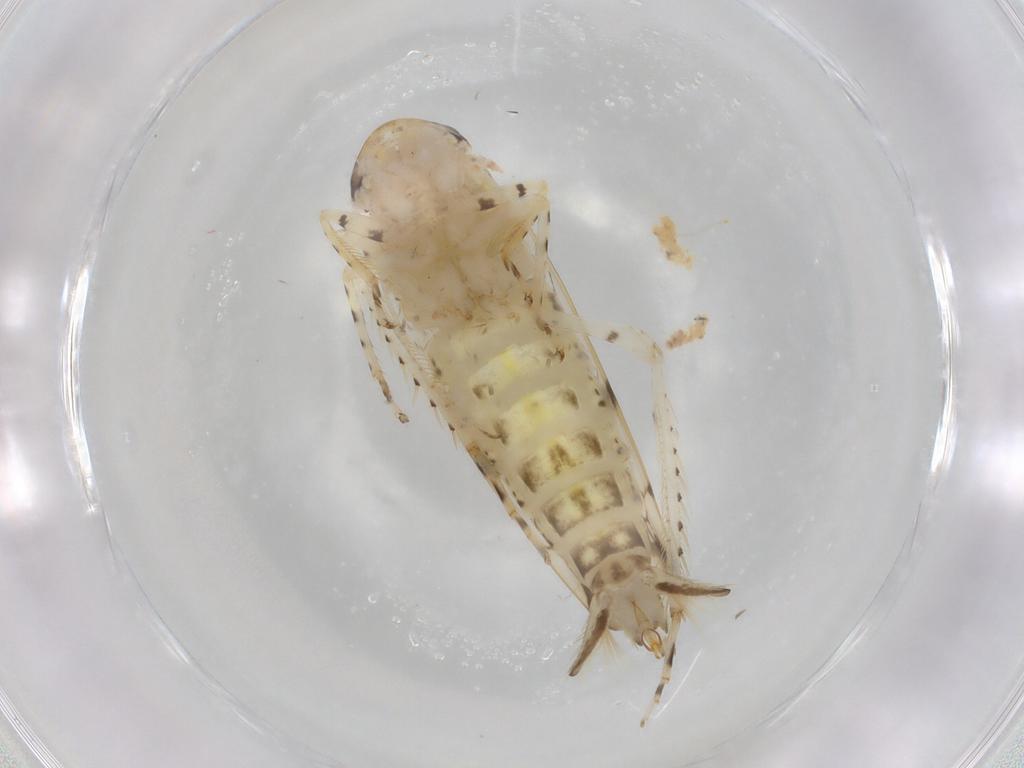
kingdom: Animalia
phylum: Arthropoda
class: Insecta
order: Hemiptera
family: Cicadellidae
